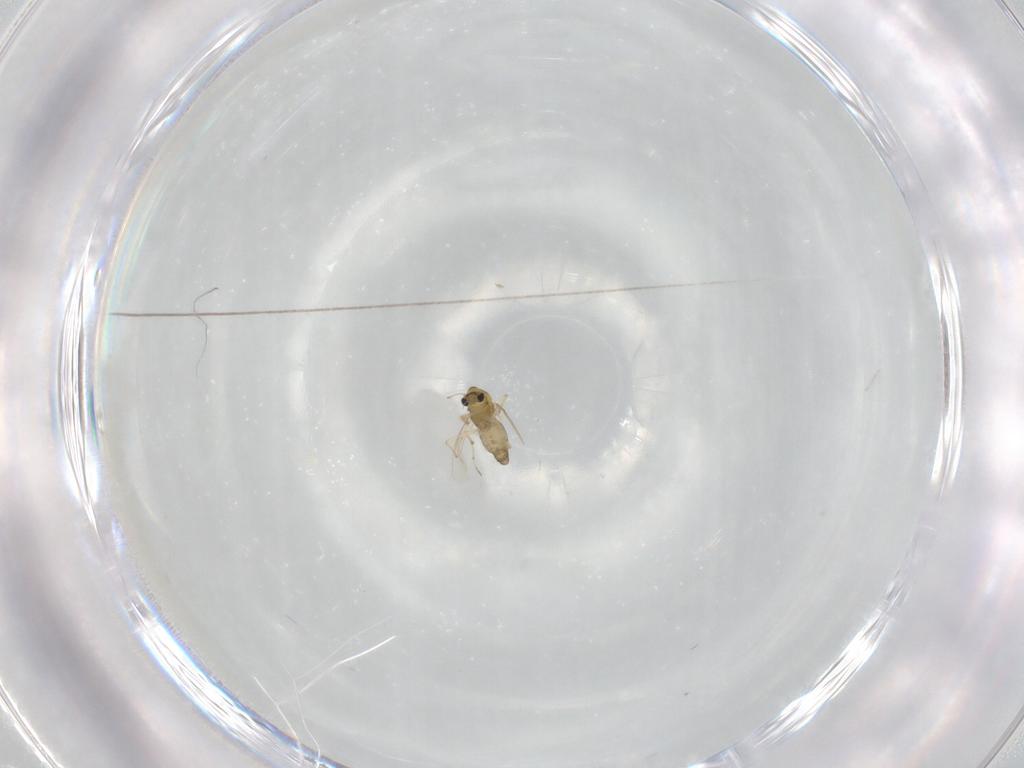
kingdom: Animalia
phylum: Arthropoda
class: Insecta
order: Diptera
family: Chironomidae
